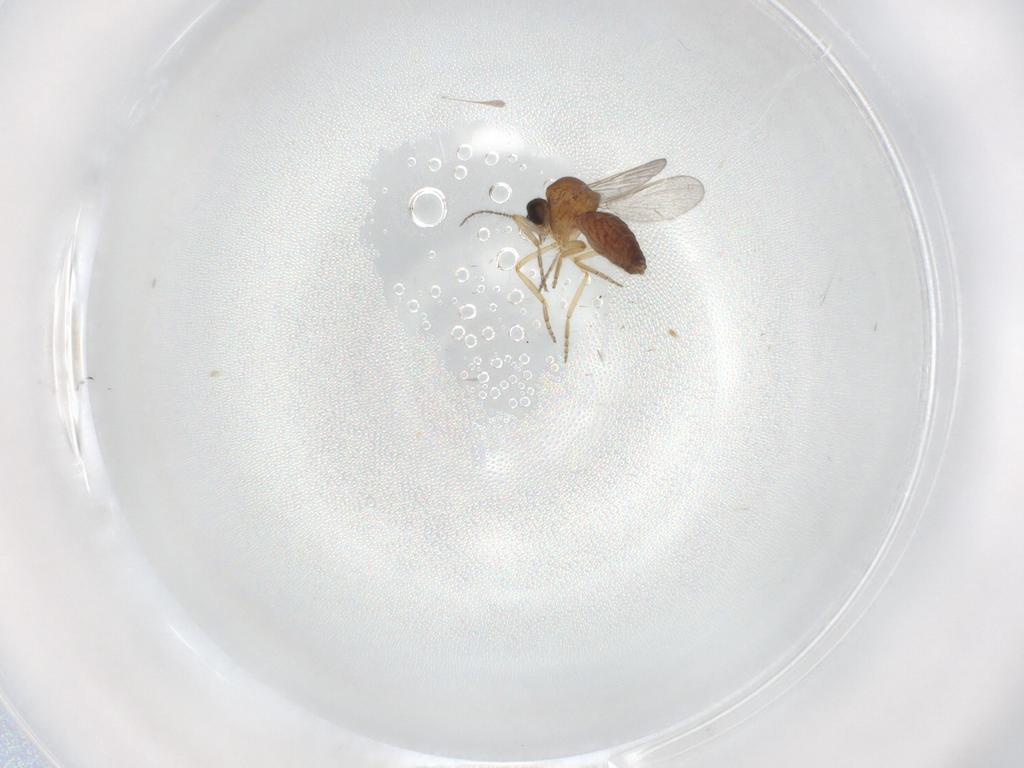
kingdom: Animalia
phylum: Arthropoda
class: Insecta
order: Diptera
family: Ceratopogonidae
